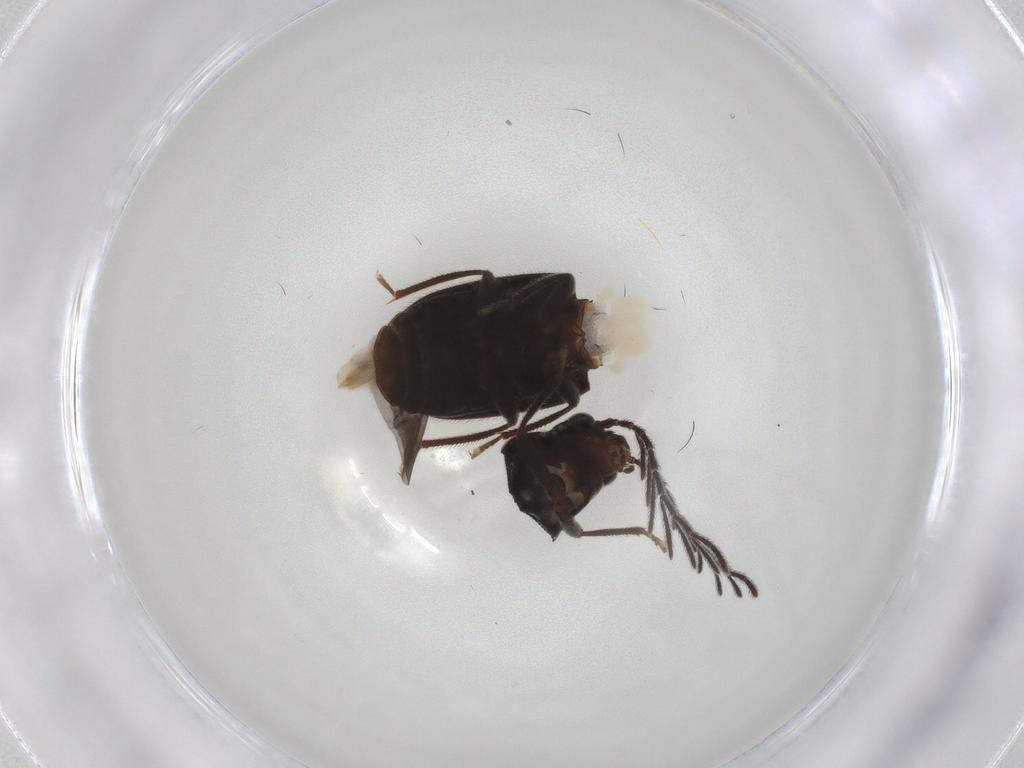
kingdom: Animalia
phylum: Arthropoda
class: Insecta
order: Coleoptera
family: Ptilodactylidae
